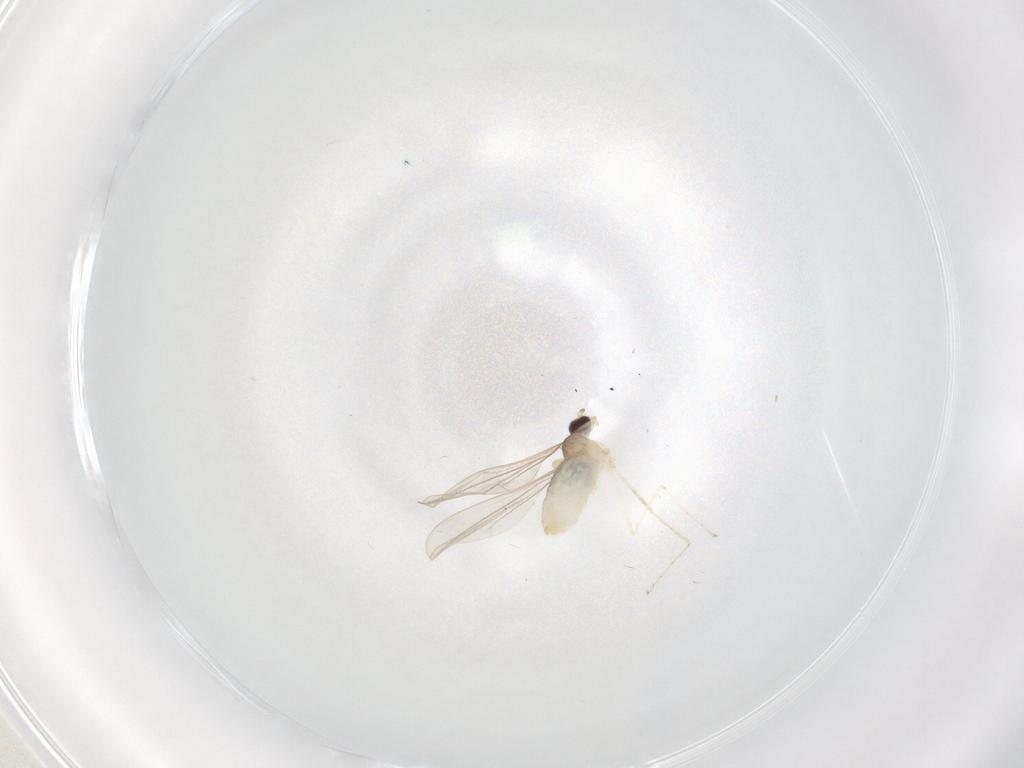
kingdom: Animalia
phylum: Arthropoda
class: Insecta
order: Diptera
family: Cecidomyiidae
